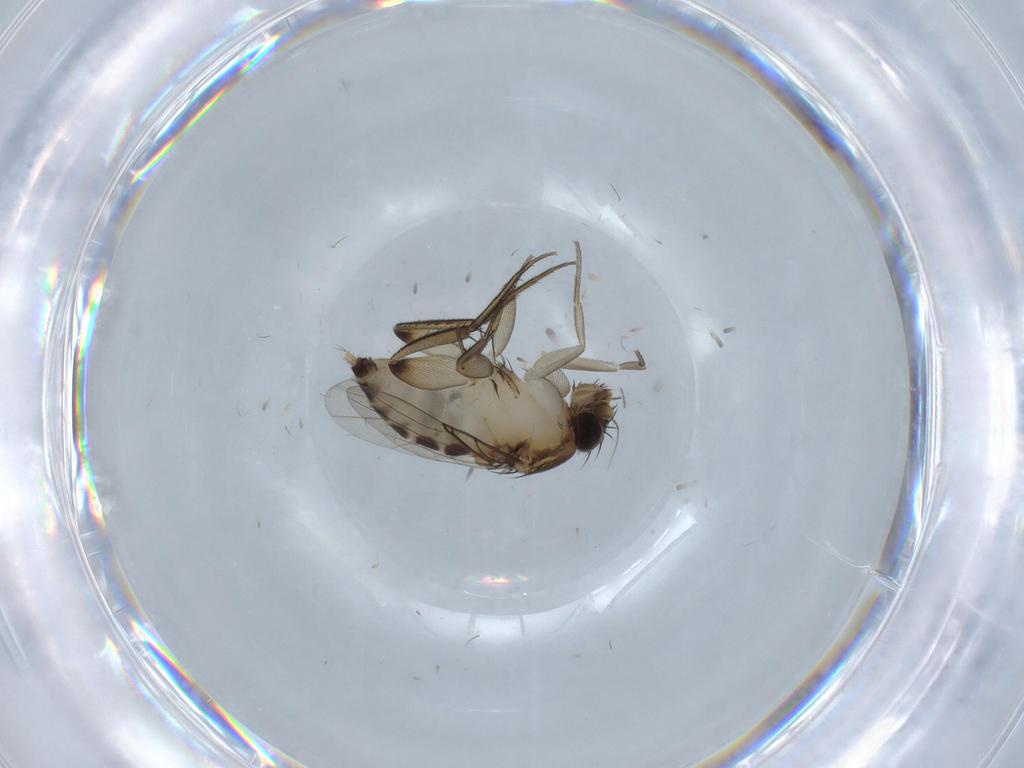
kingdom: Animalia
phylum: Arthropoda
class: Insecta
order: Diptera
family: Phoridae
